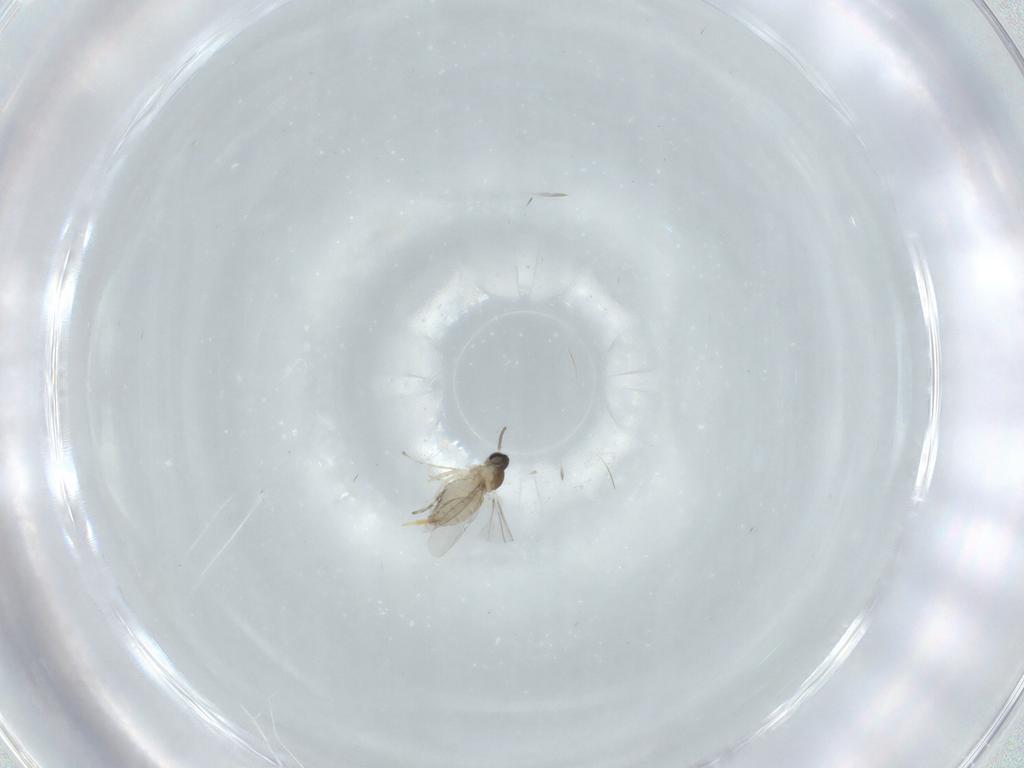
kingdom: Animalia
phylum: Arthropoda
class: Insecta
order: Diptera
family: Cecidomyiidae
